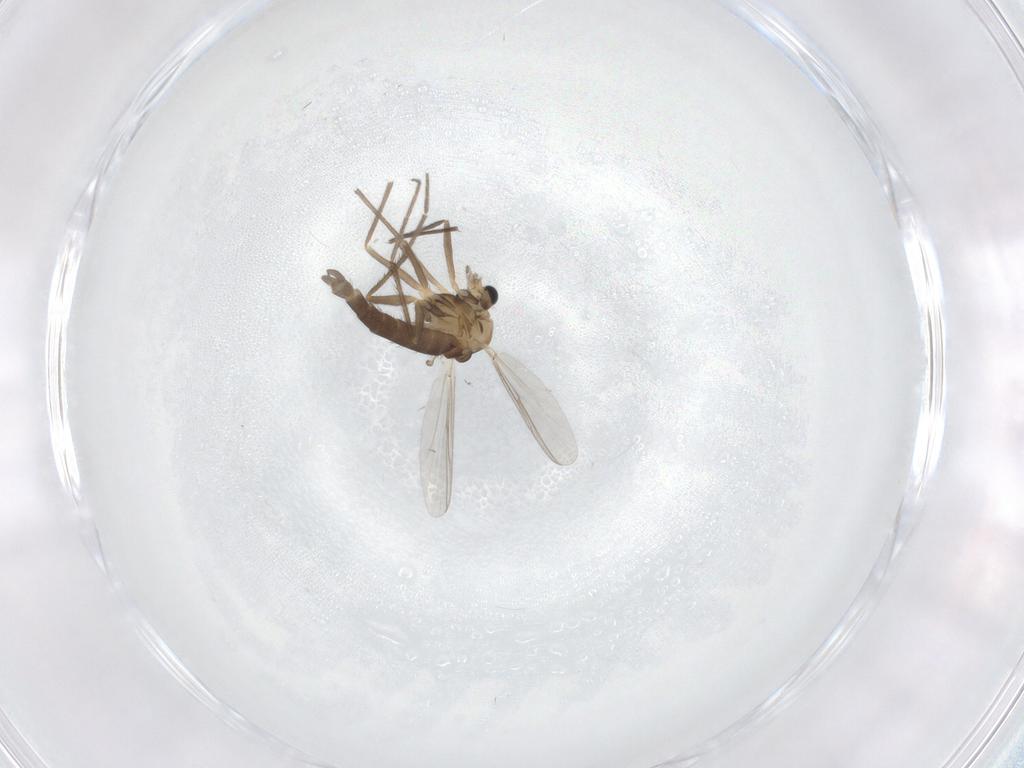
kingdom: Animalia
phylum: Arthropoda
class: Insecta
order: Diptera
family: Chironomidae
